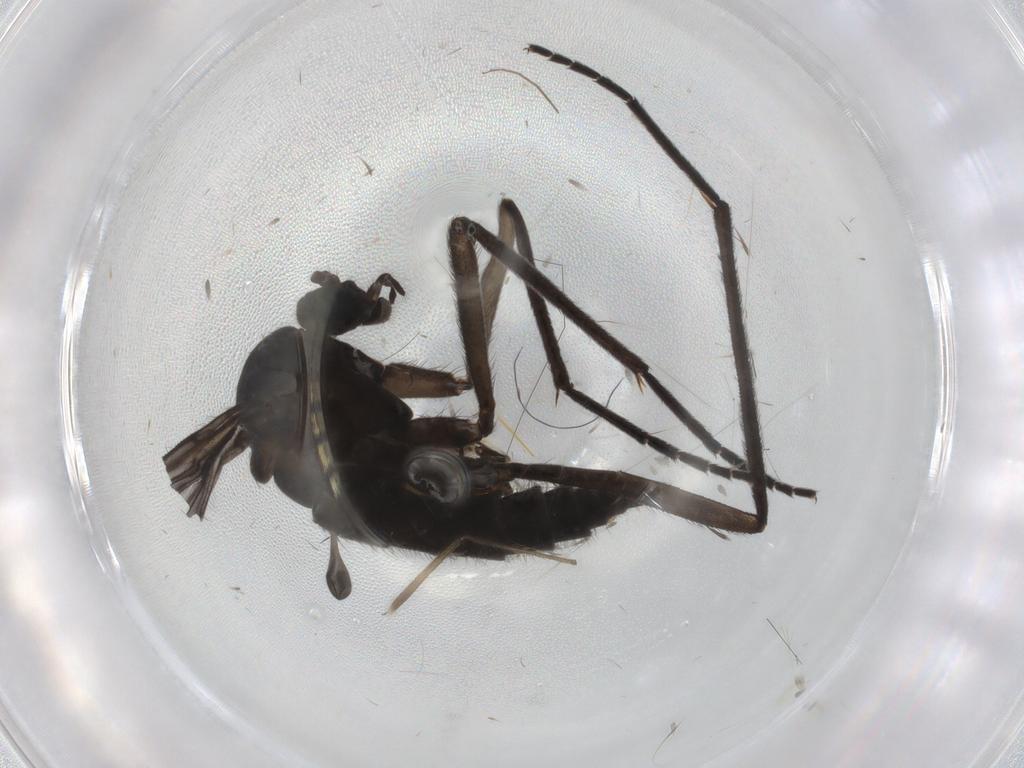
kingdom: Animalia
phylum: Arthropoda
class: Insecta
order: Diptera
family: Sciaridae
